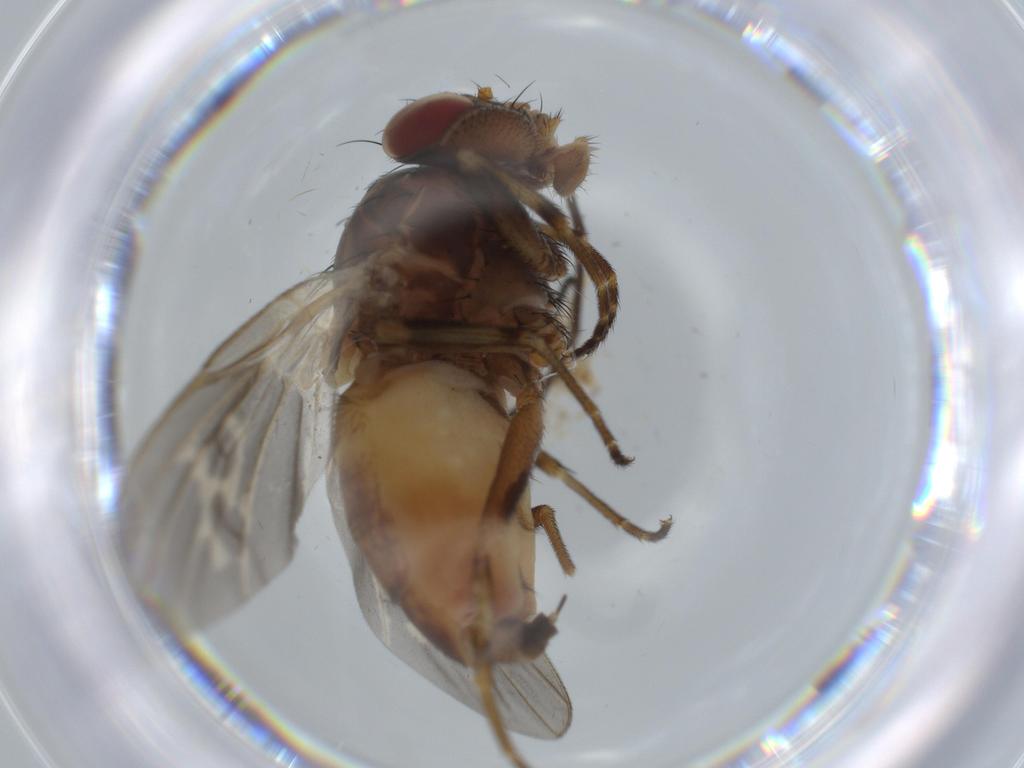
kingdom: Animalia
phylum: Arthropoda
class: Insecta
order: Diptera
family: Odiniidae
